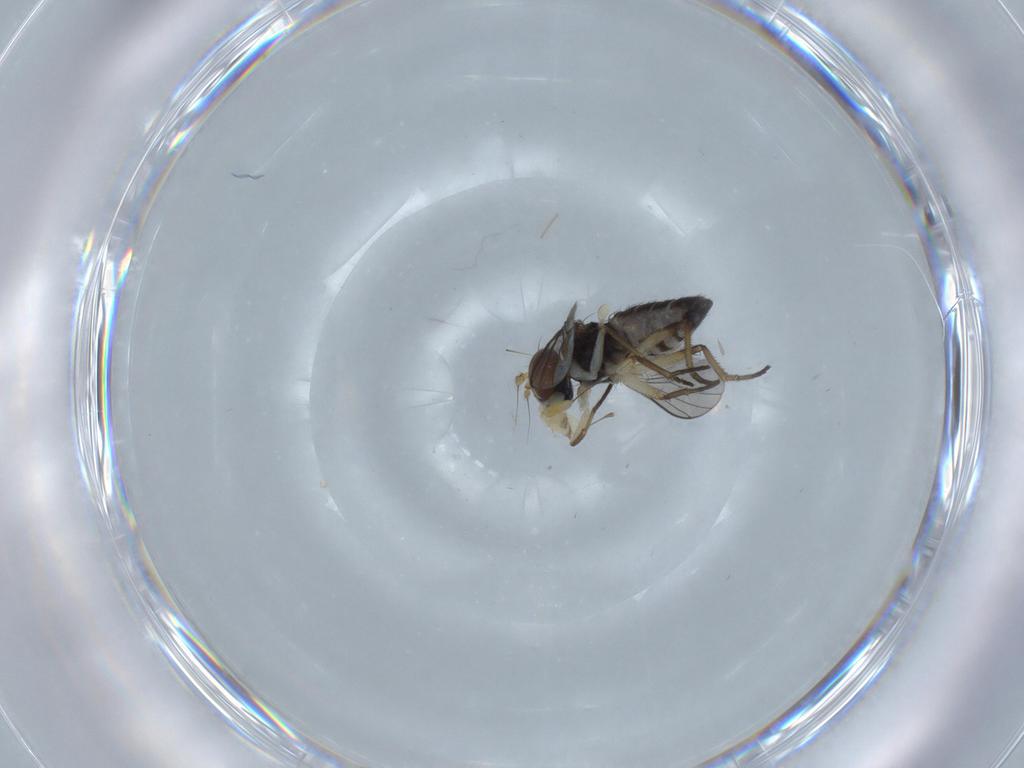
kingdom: Animalia
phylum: Arthropoda
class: Insecta
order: Diptera
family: Dolichopodidae
